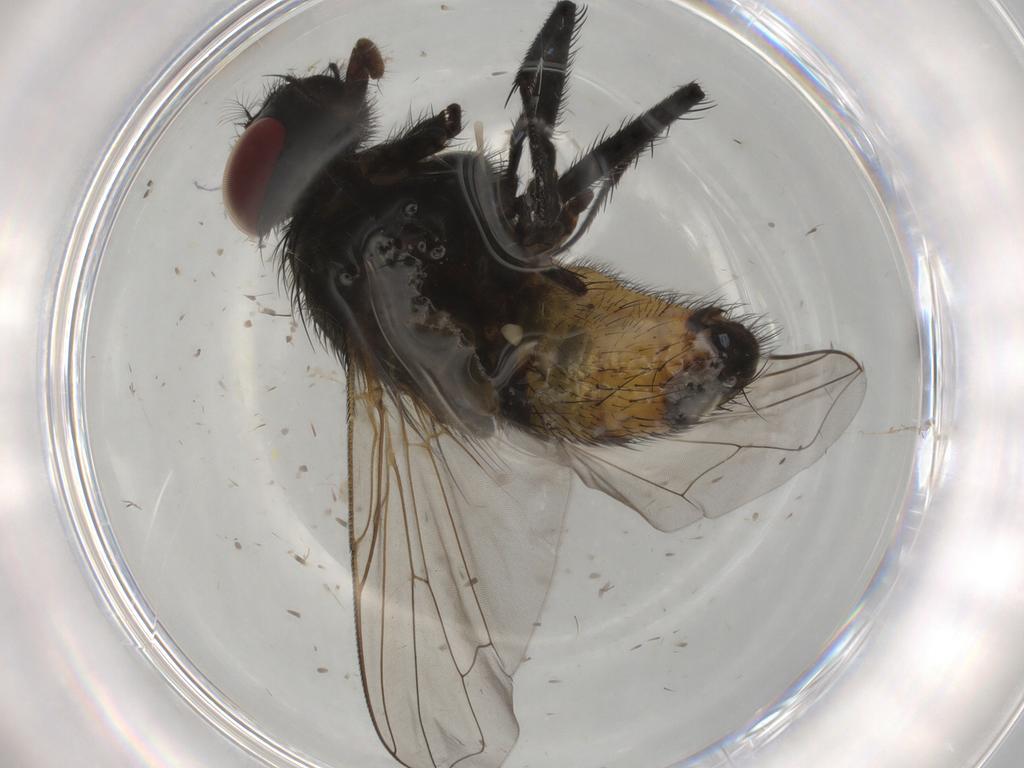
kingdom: Animalia
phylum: Arthropoda
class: Insecta
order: Diptera
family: Muscidae
